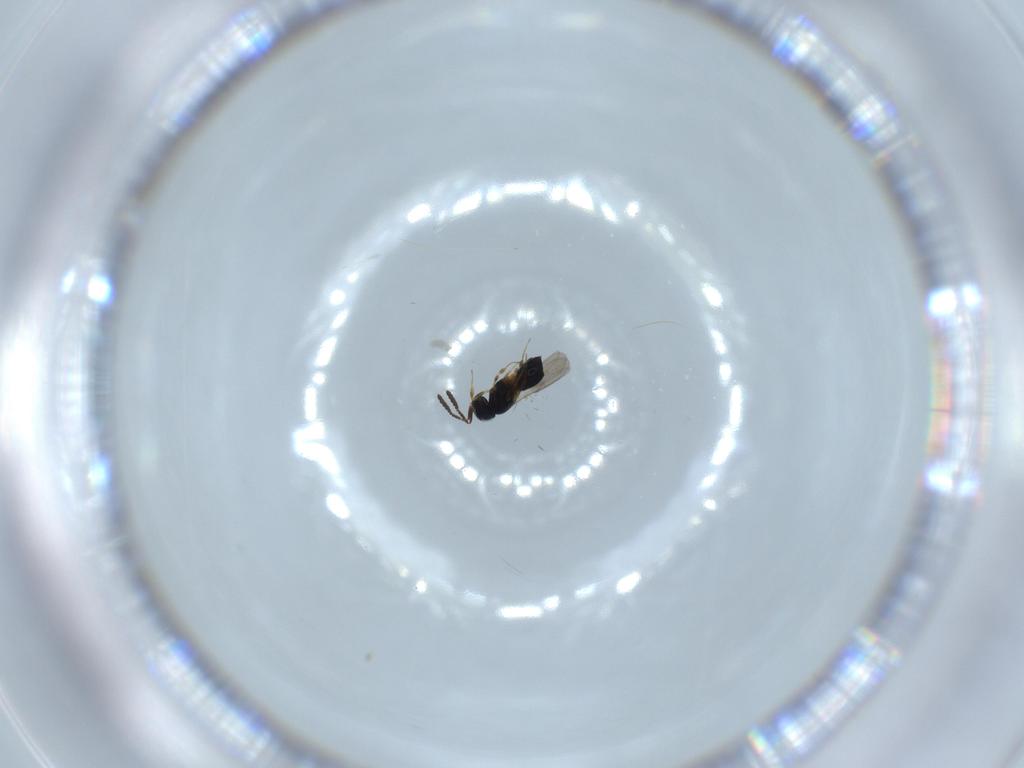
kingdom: Animalia
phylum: Arthropoda
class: Insecta
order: Hymenoptera
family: Scelionidae
